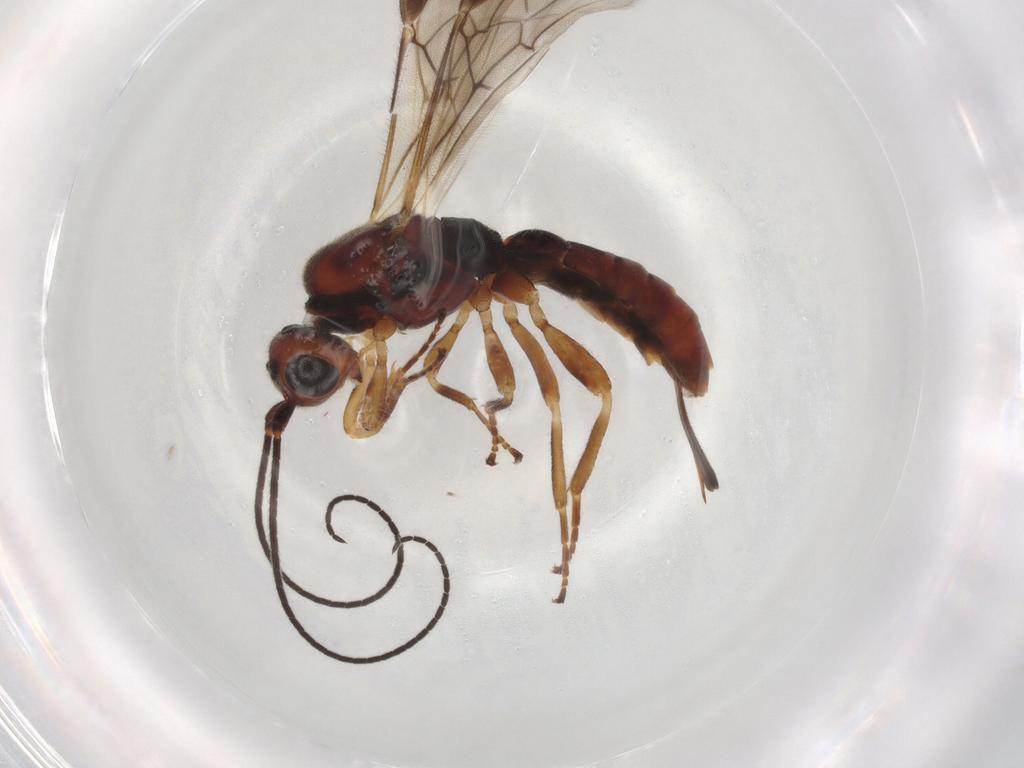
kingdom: Animalia
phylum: Arthropoda
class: Insecta
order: Hymenoptera
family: Braconidae
